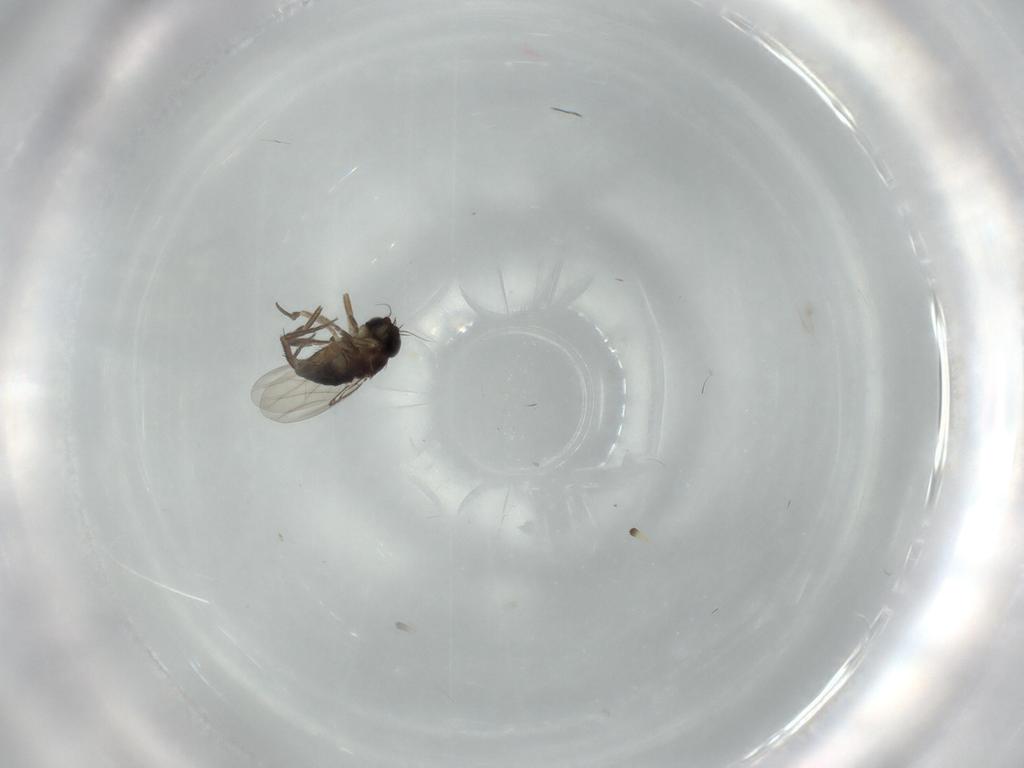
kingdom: Animalia
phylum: Arthropoda
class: Insecta
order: Diptera
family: Phoridae
